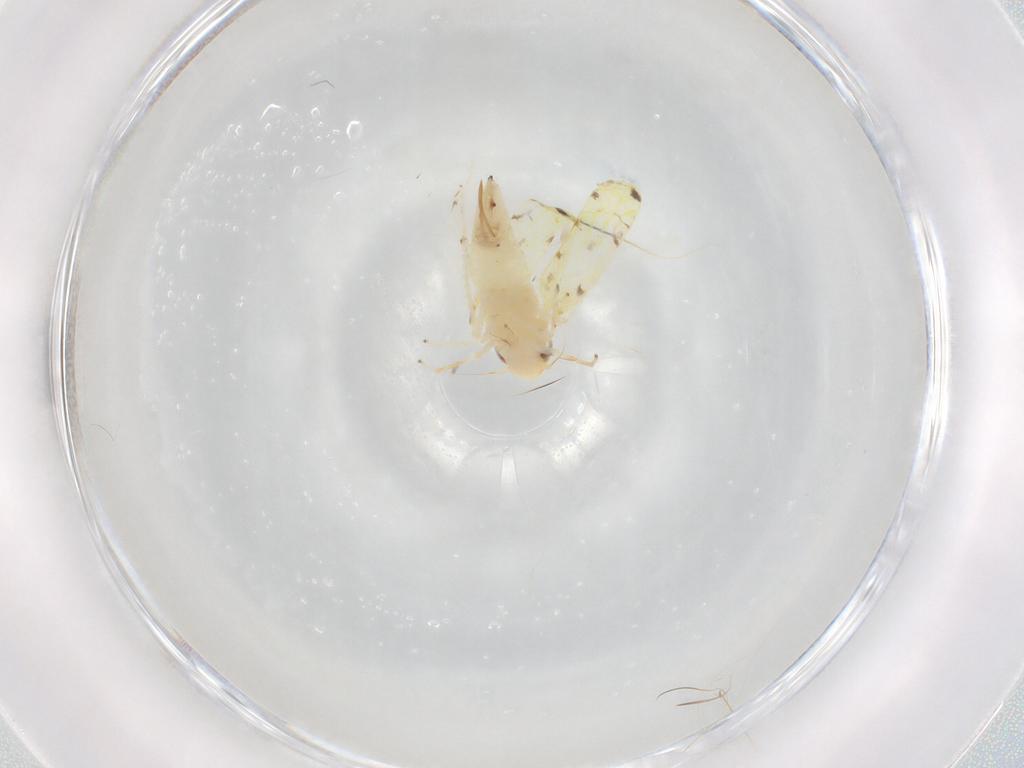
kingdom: Animalia
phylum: Arthropoda
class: Insecta
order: Hemiptera
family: Cicadellidae
